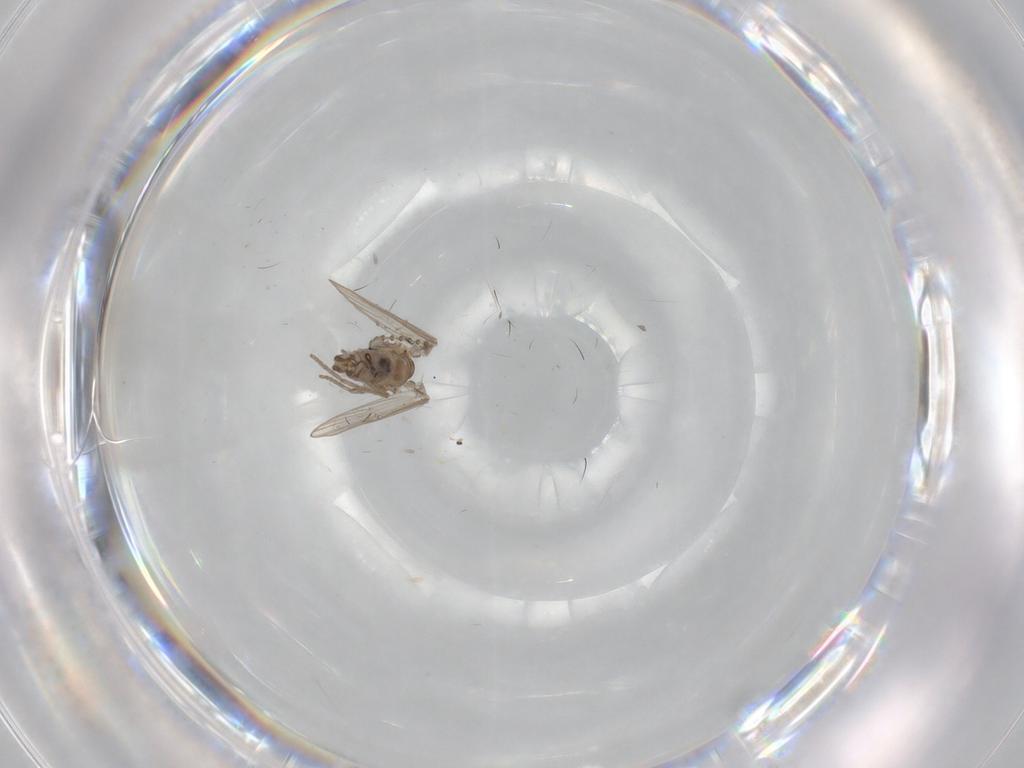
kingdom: Animalia
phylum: Arthropoda
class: Insecta
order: Diptera
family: Psychodidae
